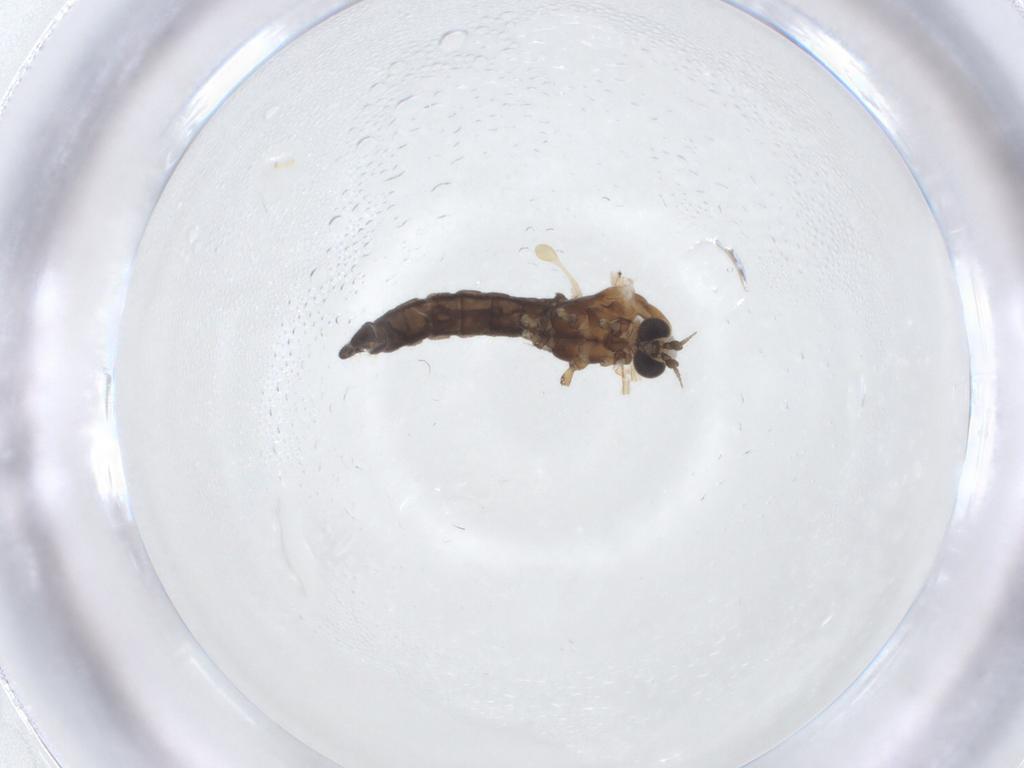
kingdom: Animalia
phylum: Arthropoda
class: Insecta
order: Diptera
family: Limoniidae
